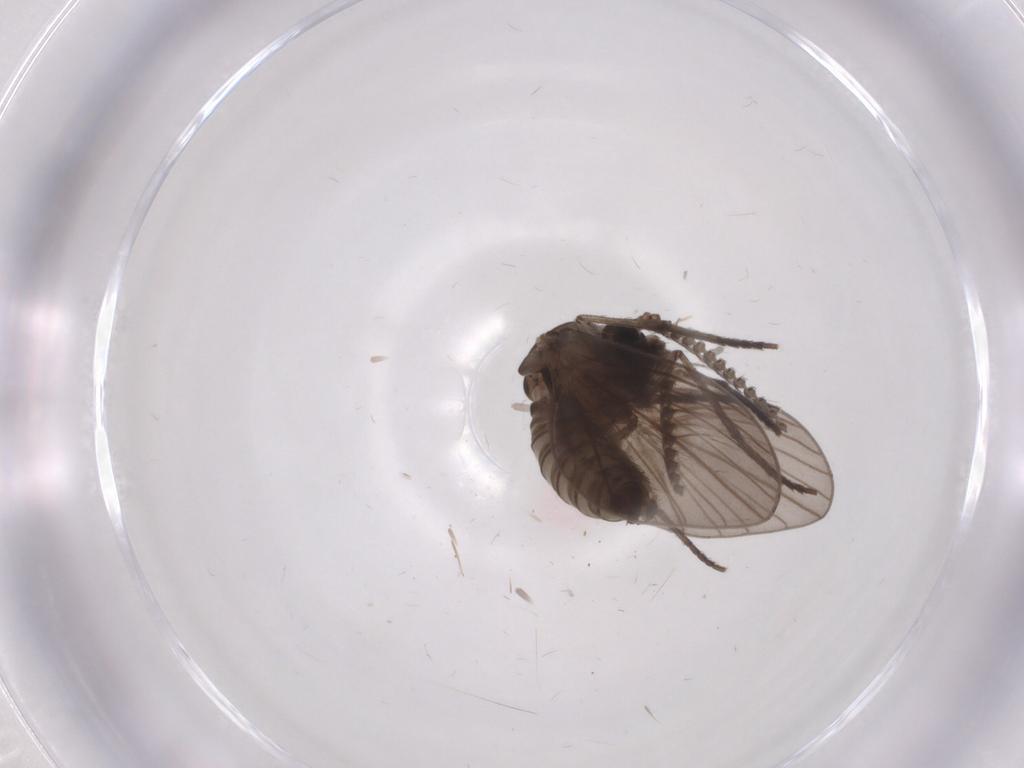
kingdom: Animalia
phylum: Arthropoda
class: Insecta
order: Diptera
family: Psychodidae
